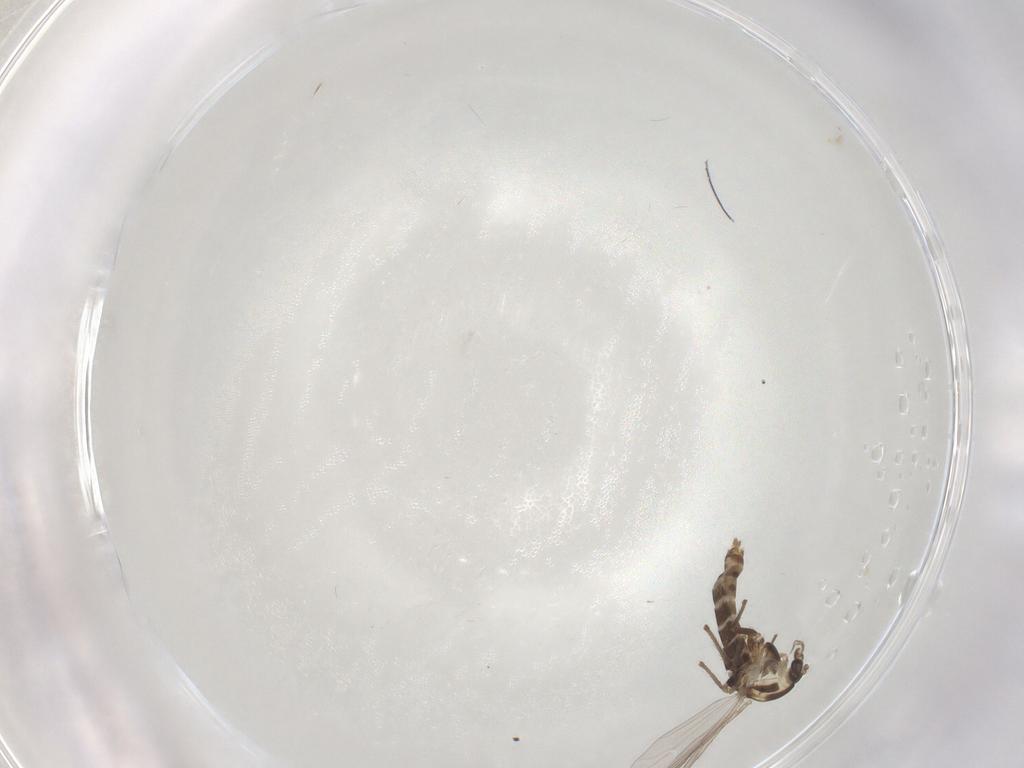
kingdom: Animalia
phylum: Arthropoda
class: Insecta
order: Diptera
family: Limoniidae
